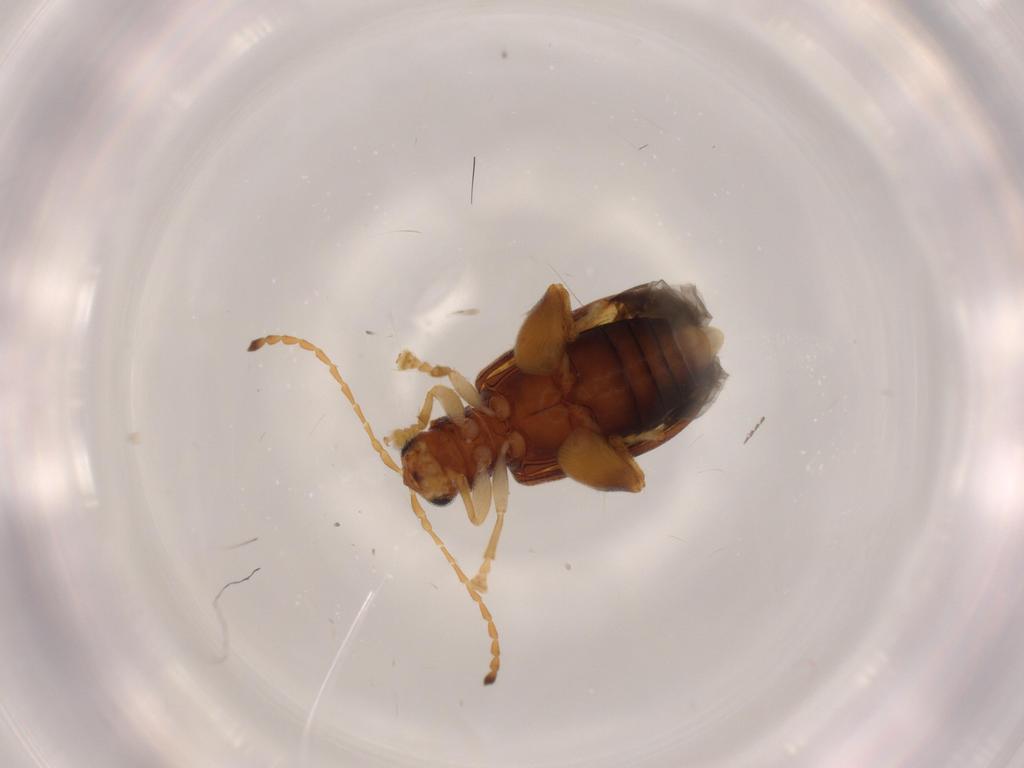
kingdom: Animalia
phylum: Arthropoda
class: Insecta
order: Coleoptera
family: Chrysomelidae
